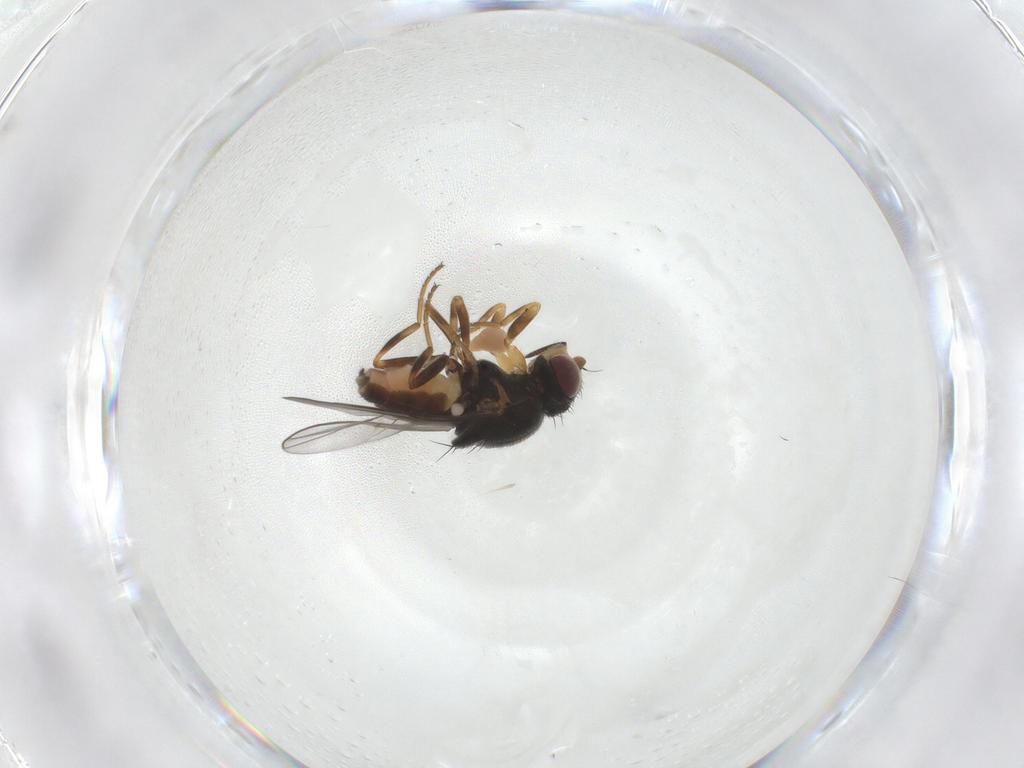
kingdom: Animalia
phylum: Arthropoda
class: Insecta
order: Diptera
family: Chloropidae
